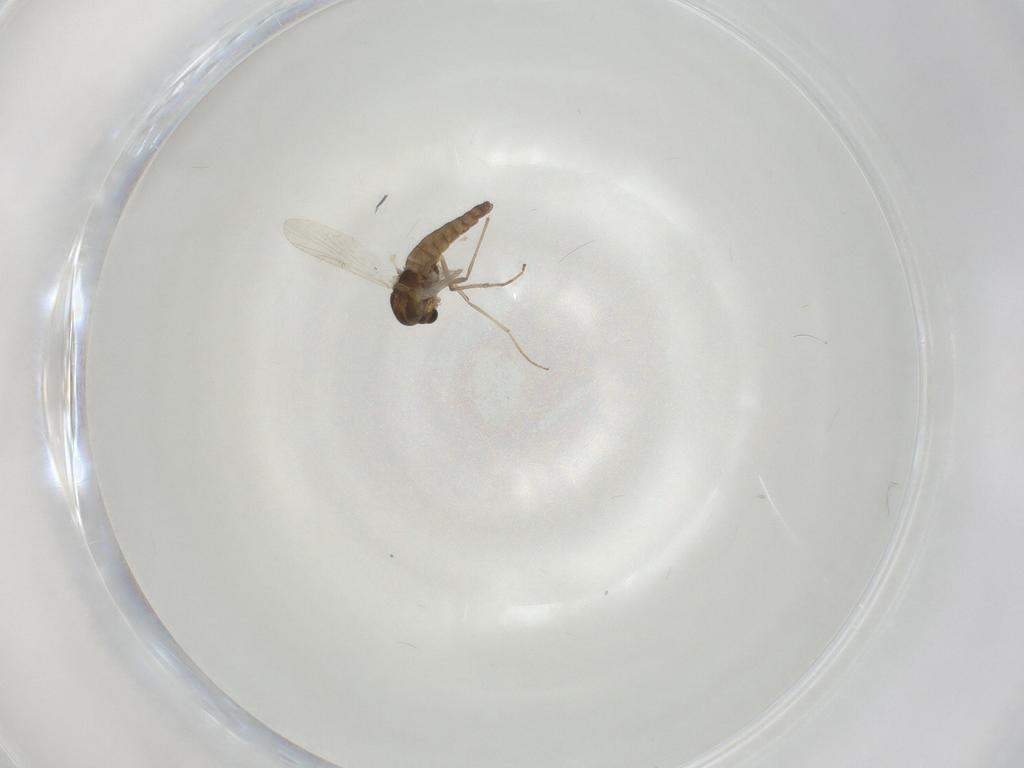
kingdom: Animalia
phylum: Arthropoda
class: Insecta
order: Diptera
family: Chironomidae
